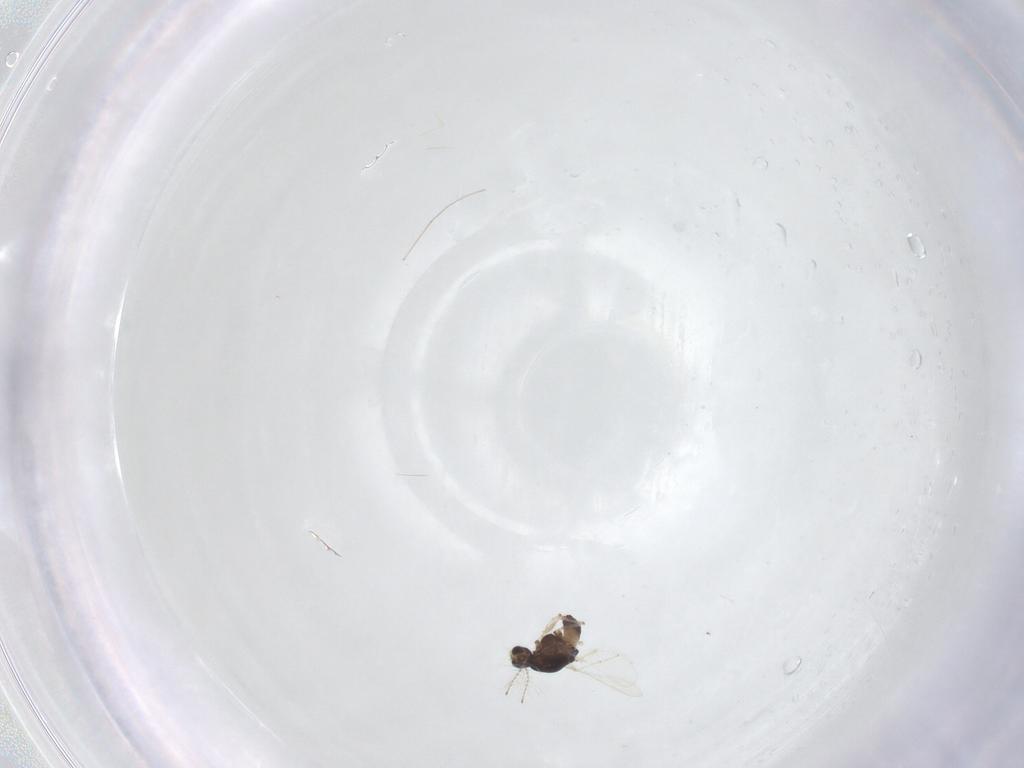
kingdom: Animalia
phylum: Arthropoda
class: Insecta
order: Diptera
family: Chironomidae
